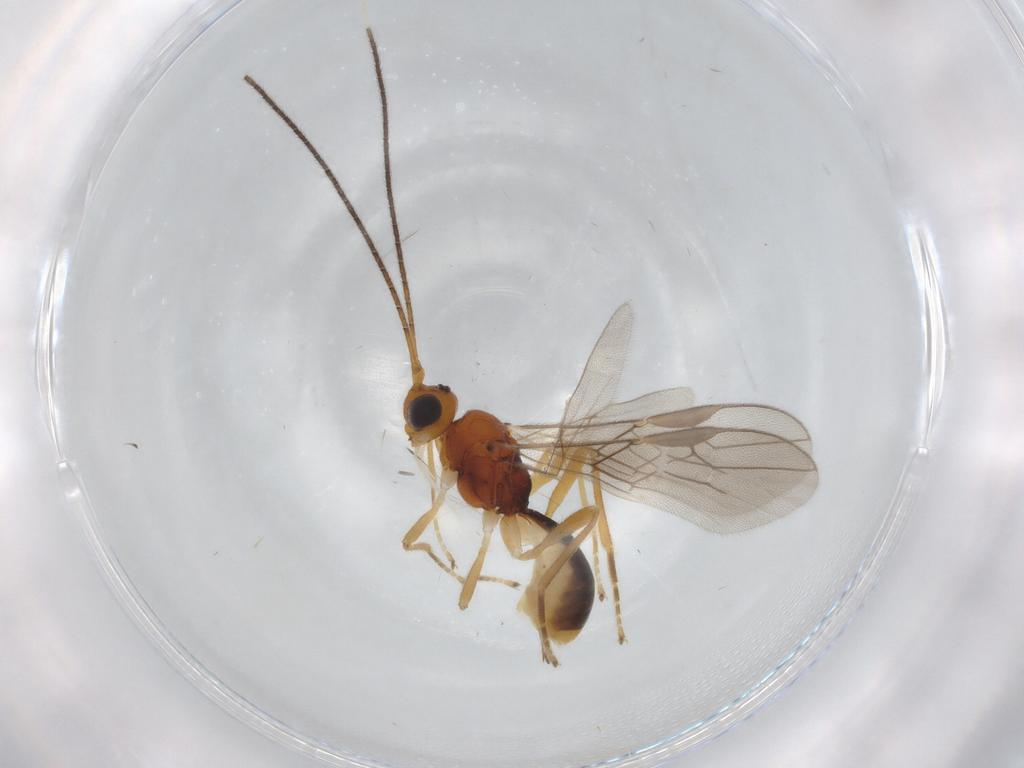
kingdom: Animalia
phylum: Arthropoda
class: Insecta
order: Hymenoptera
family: Braconidae
